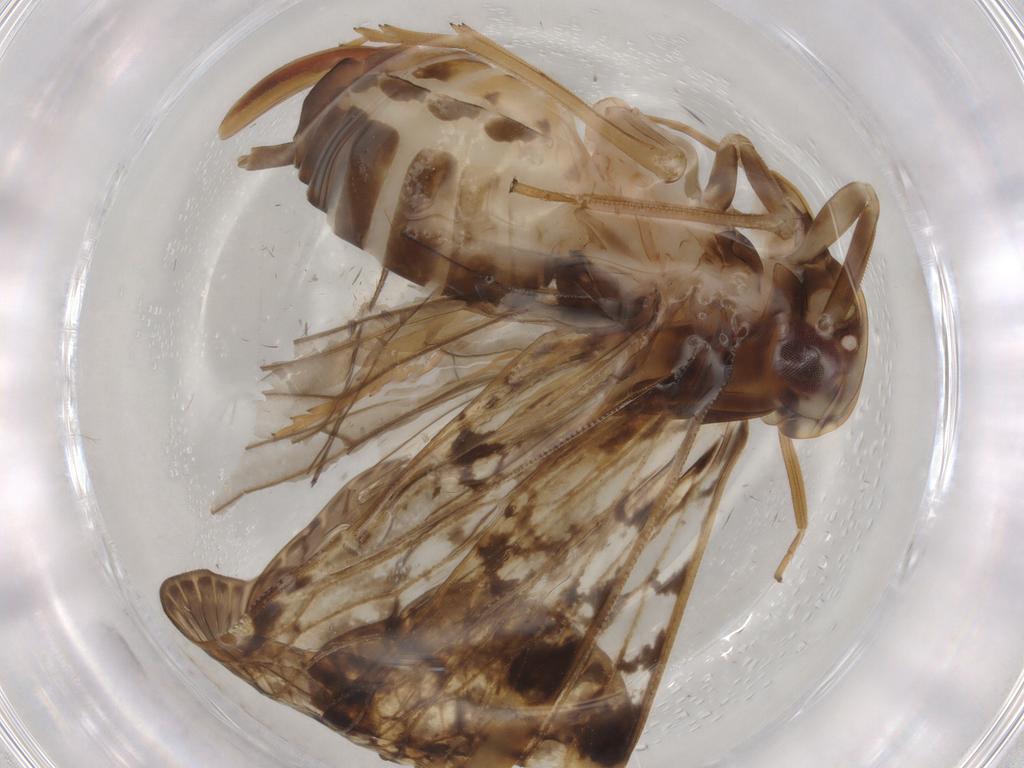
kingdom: Animalia
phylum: Arthropoda
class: Insecta
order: Hemiptera
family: Cixiidae
